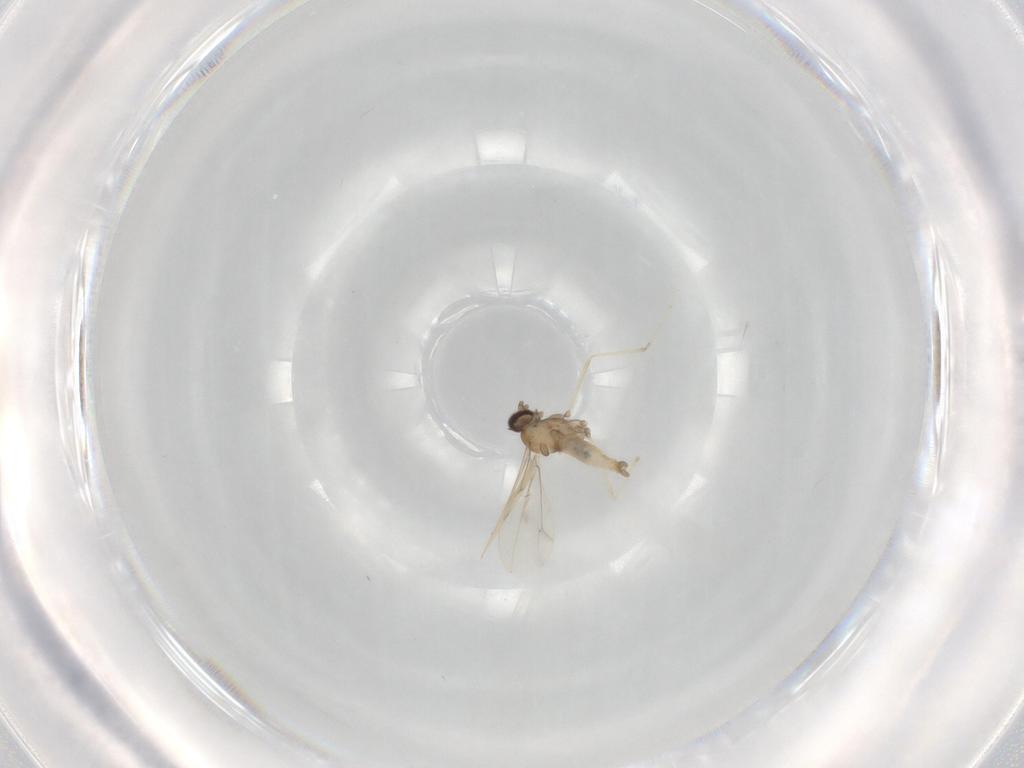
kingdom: Animalia
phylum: Arthropoda
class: Insecta
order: Diptera
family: Cecidomyiidae
